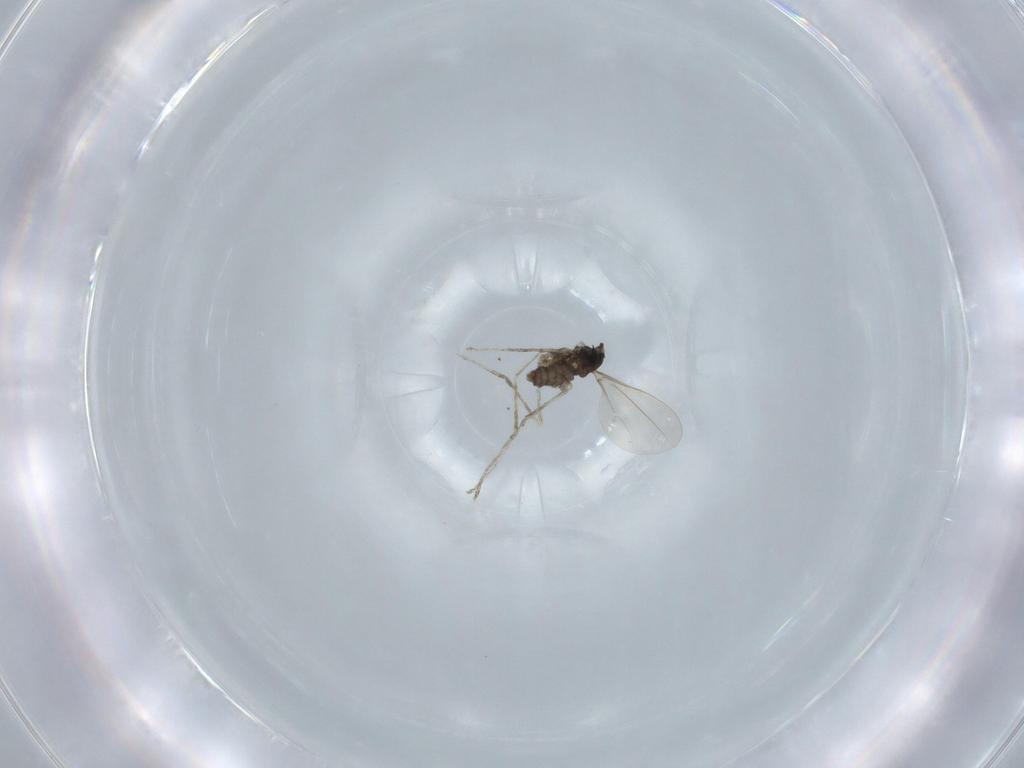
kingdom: Animalia
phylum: Arthropoda
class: Insecta
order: Diptera
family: Cecidomyiidae
